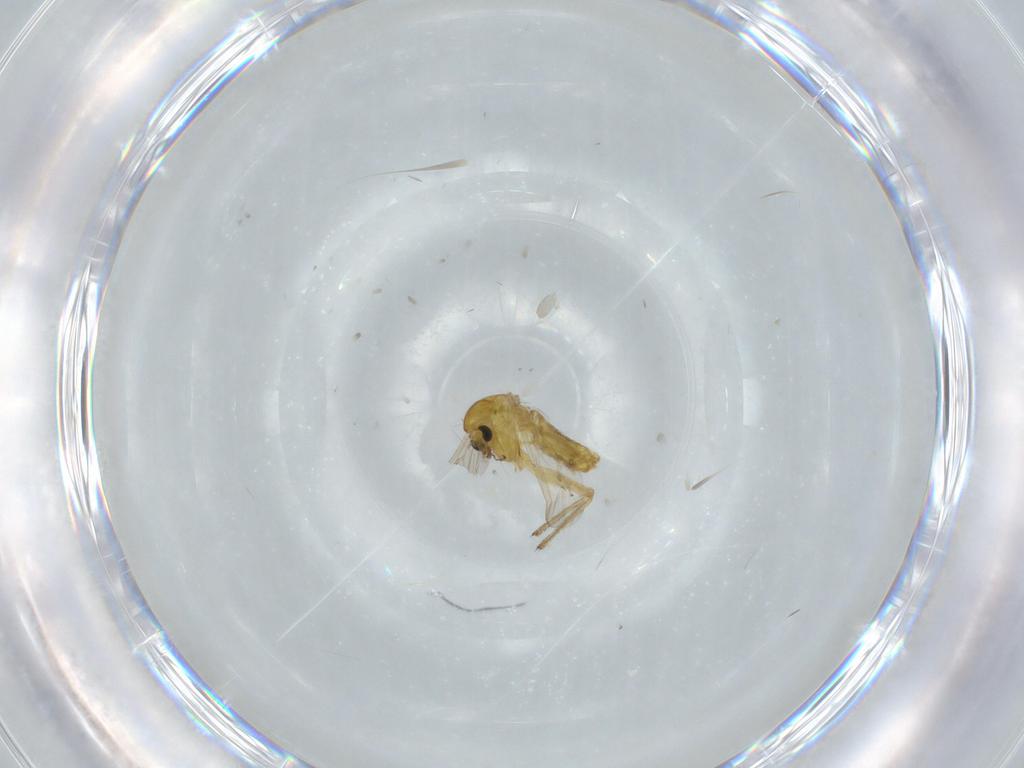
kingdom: Animalia
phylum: Arthropoda
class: Insecta
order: Diptera
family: Chironomidae
